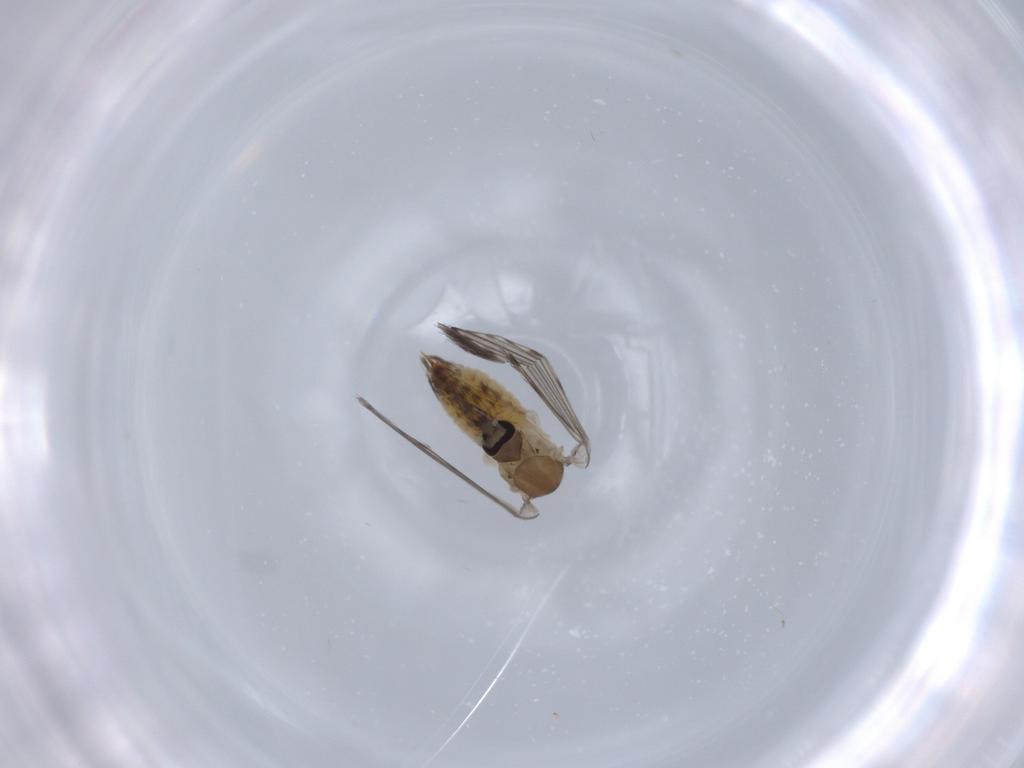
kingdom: Animalia
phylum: Arthropoda
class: Insecta
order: Diptera
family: Psychodidae
